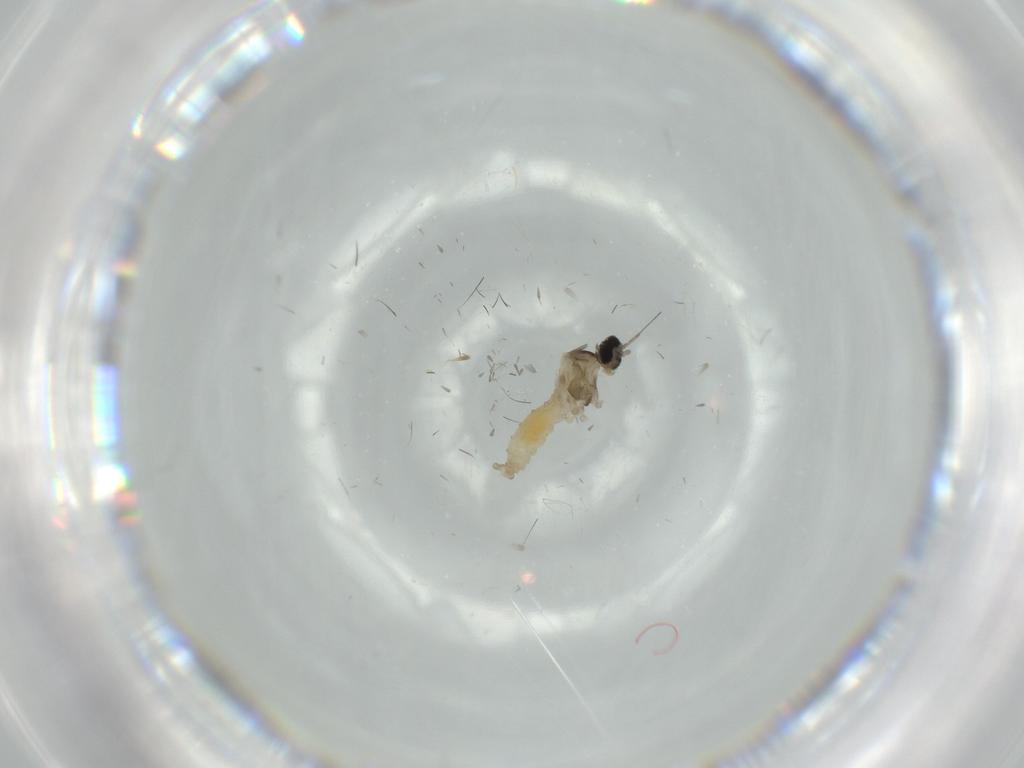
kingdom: Animalia
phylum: Arthropoda
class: Insecta
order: Diptera
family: Cecidomyiidae
